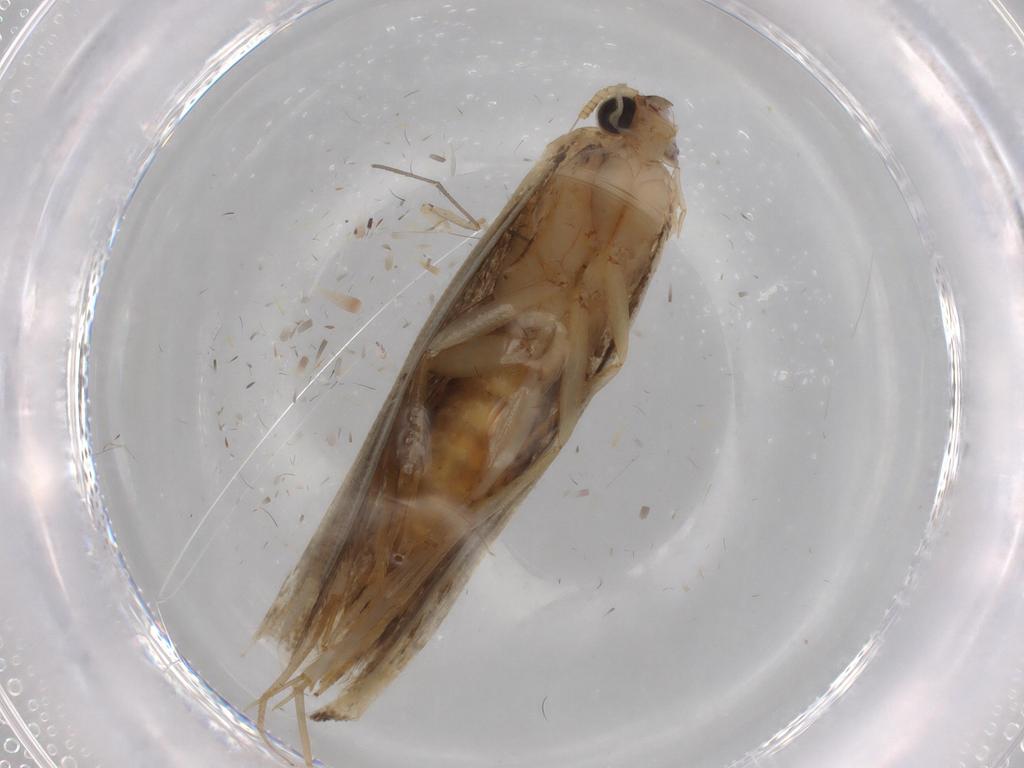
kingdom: Animalia
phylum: Arthropoda
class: Insecta
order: Lepidoptera
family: Tineidae
